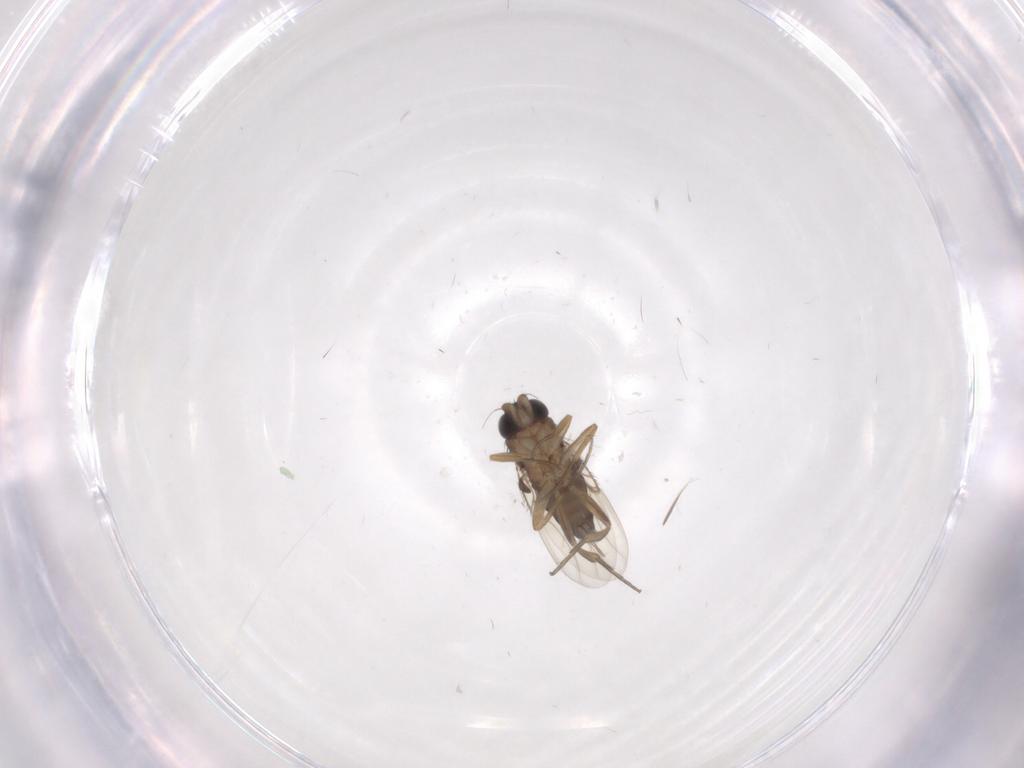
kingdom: Animalia
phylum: Arthropoda
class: Insecta
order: Diptera
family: Phoridae
